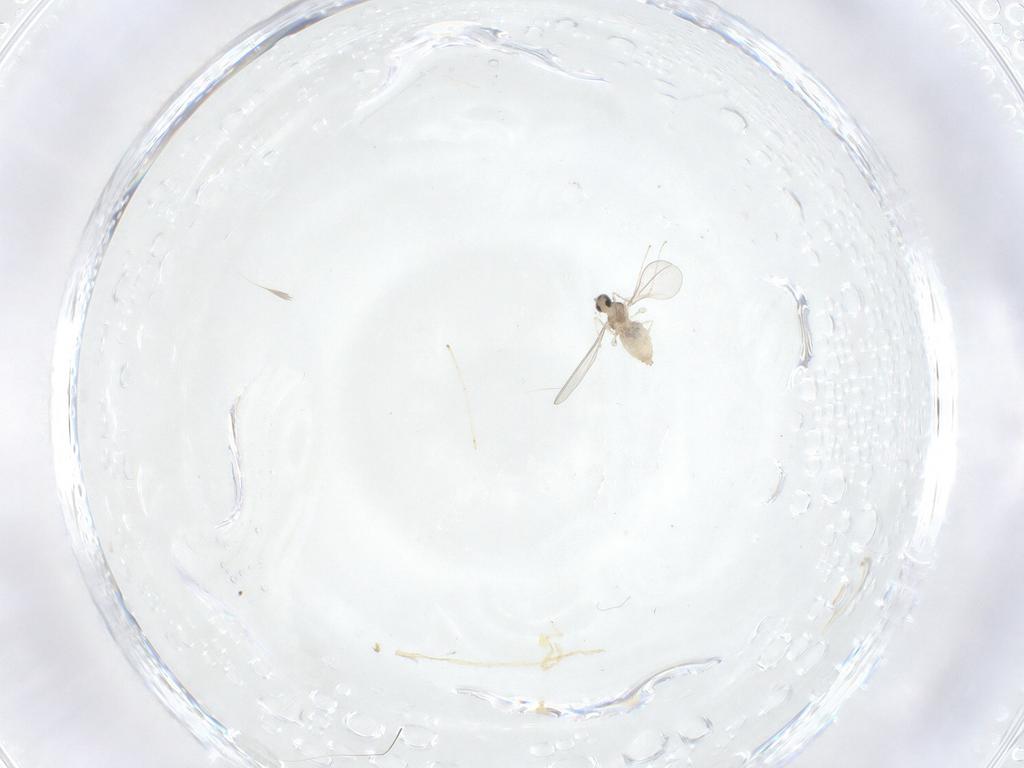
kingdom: Animalia
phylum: Arthropoda
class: Insecta
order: Diptera
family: Cecidomyiidae
